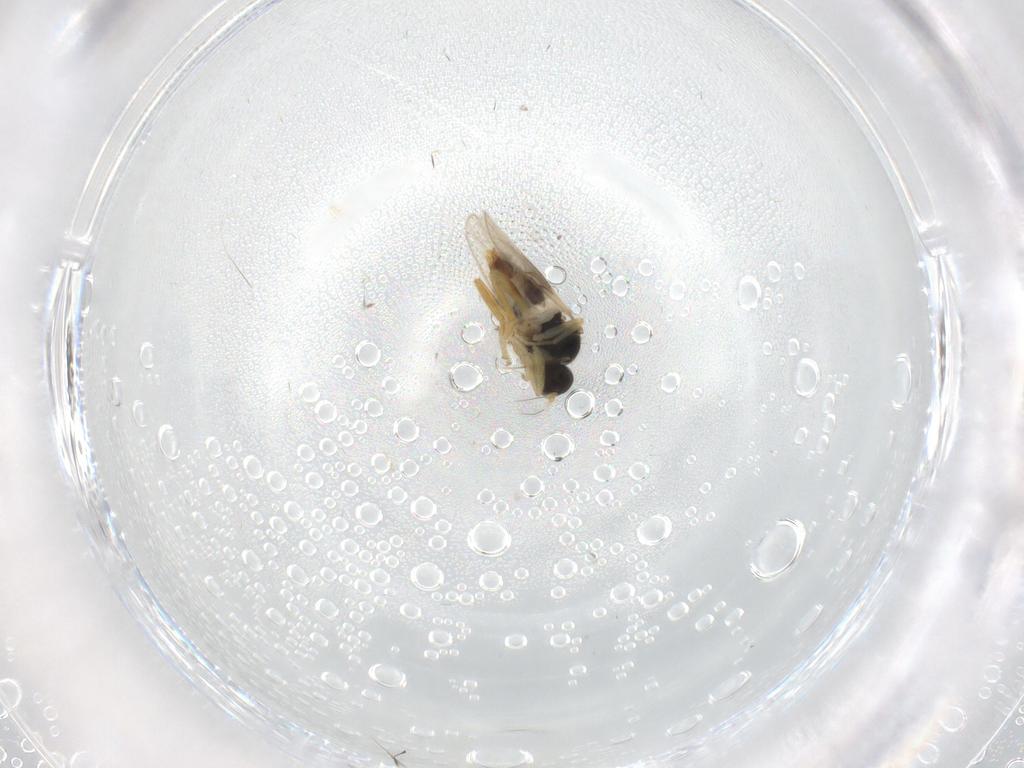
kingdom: Animalia
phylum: Arthropoda
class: Insecta
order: Diptera
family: Hybotidae
